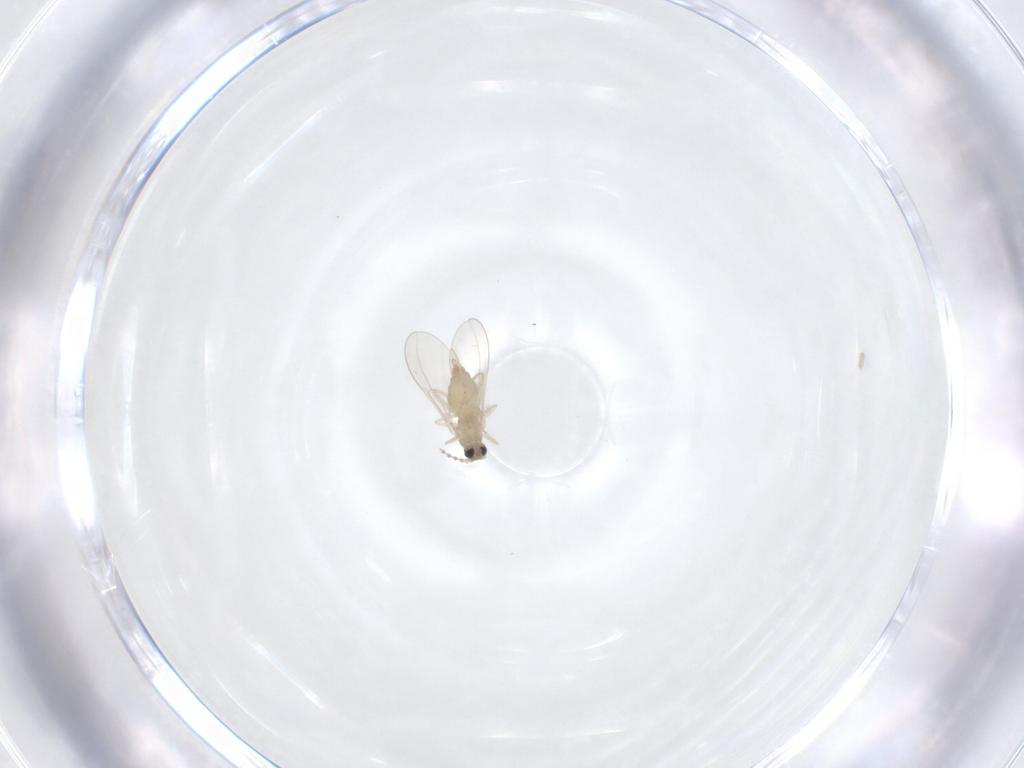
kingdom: Animalia
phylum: Arthropoda
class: Insecta
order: Diptera
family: Cecidomyiidae
